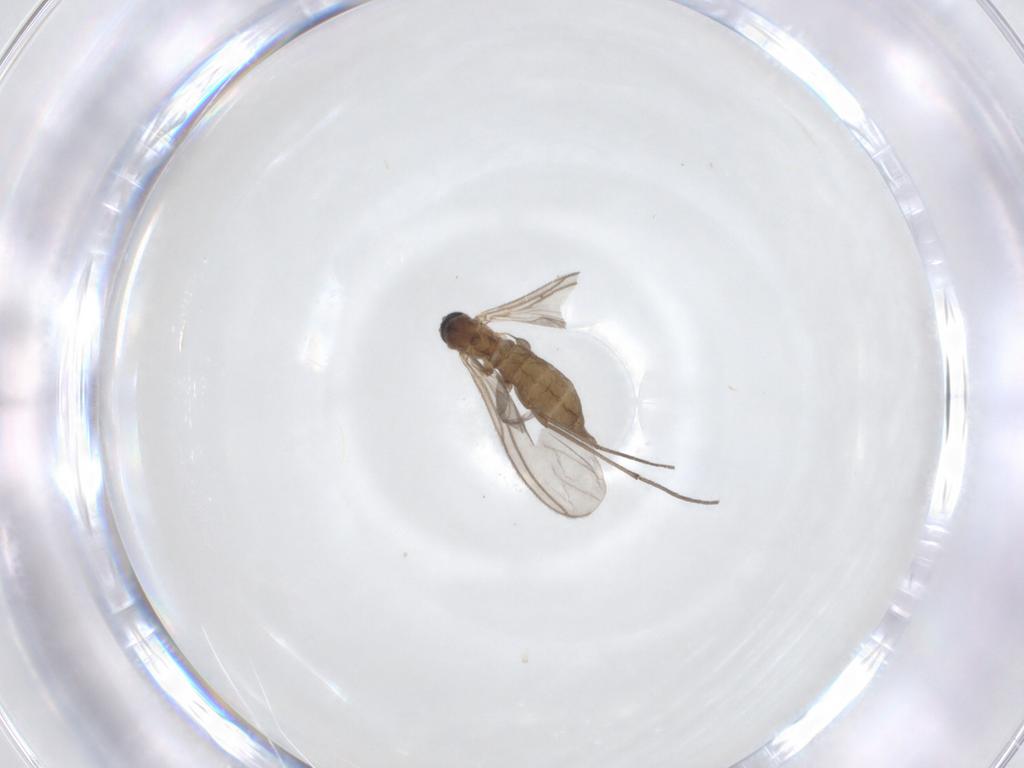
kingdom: Animalia
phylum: Arthropoda
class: Insecta
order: Diptera
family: Sciaridae
